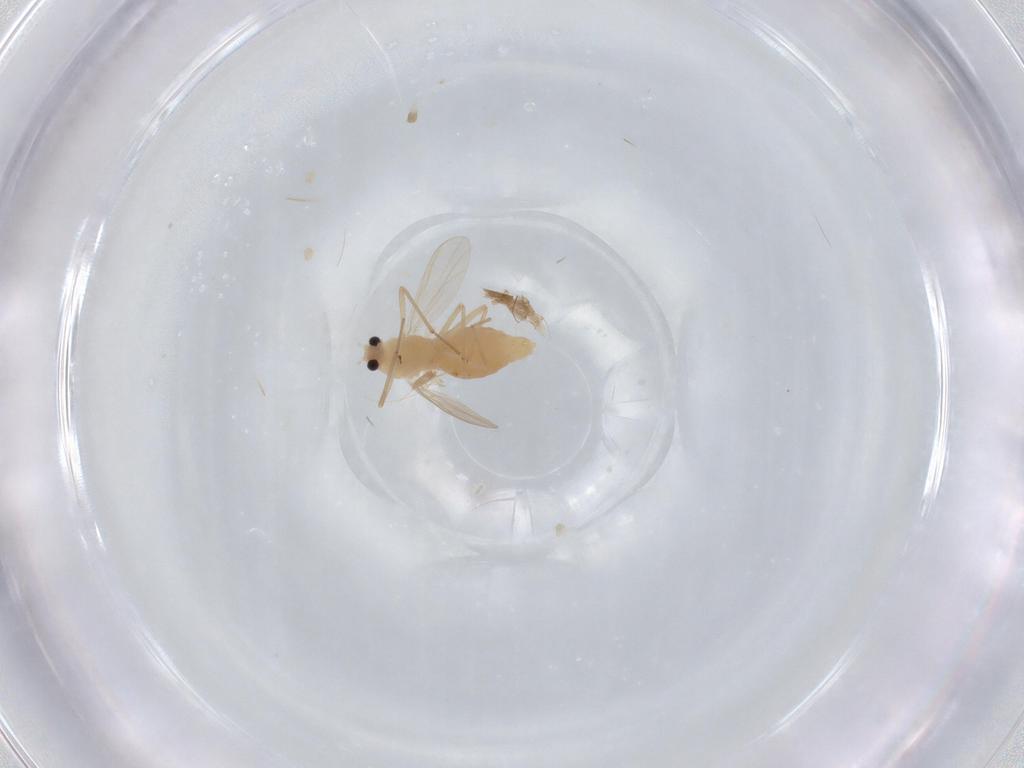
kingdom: Animalia
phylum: Arthropoda
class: Insecta
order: Diptera
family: Chironomidae
